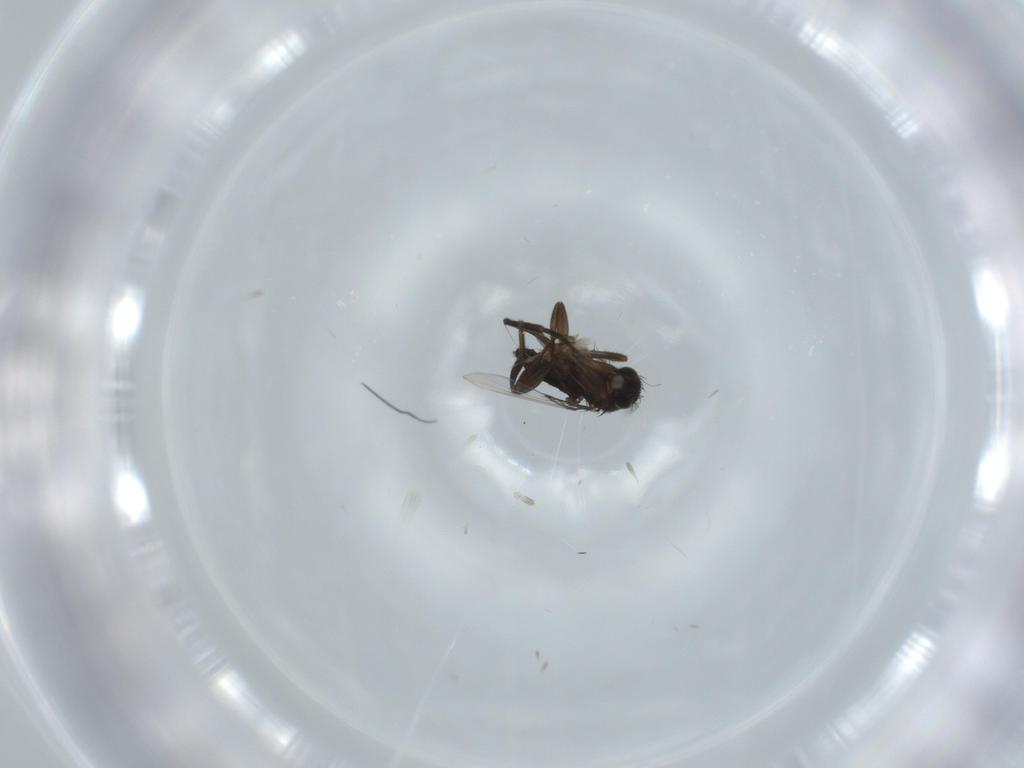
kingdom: Animalia
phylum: Arthropoda
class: Insecta
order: Diptera
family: Phoridae
